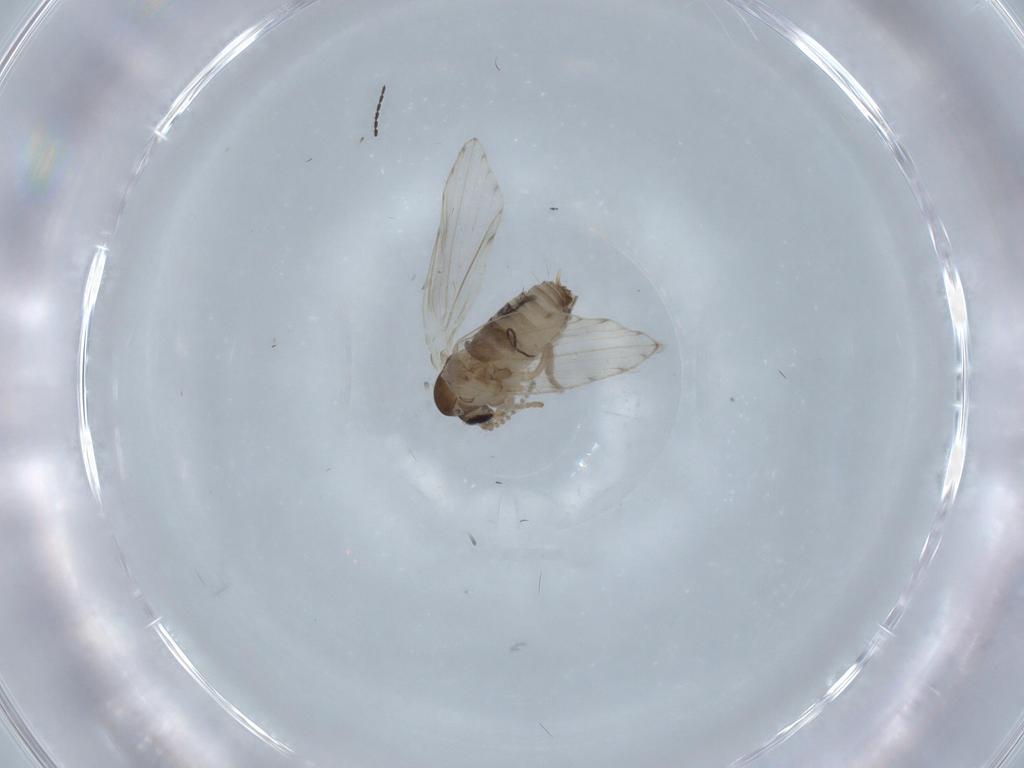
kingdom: Animalia
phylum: Arthropoda
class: Insecta
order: Diptera
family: Psychodidae
